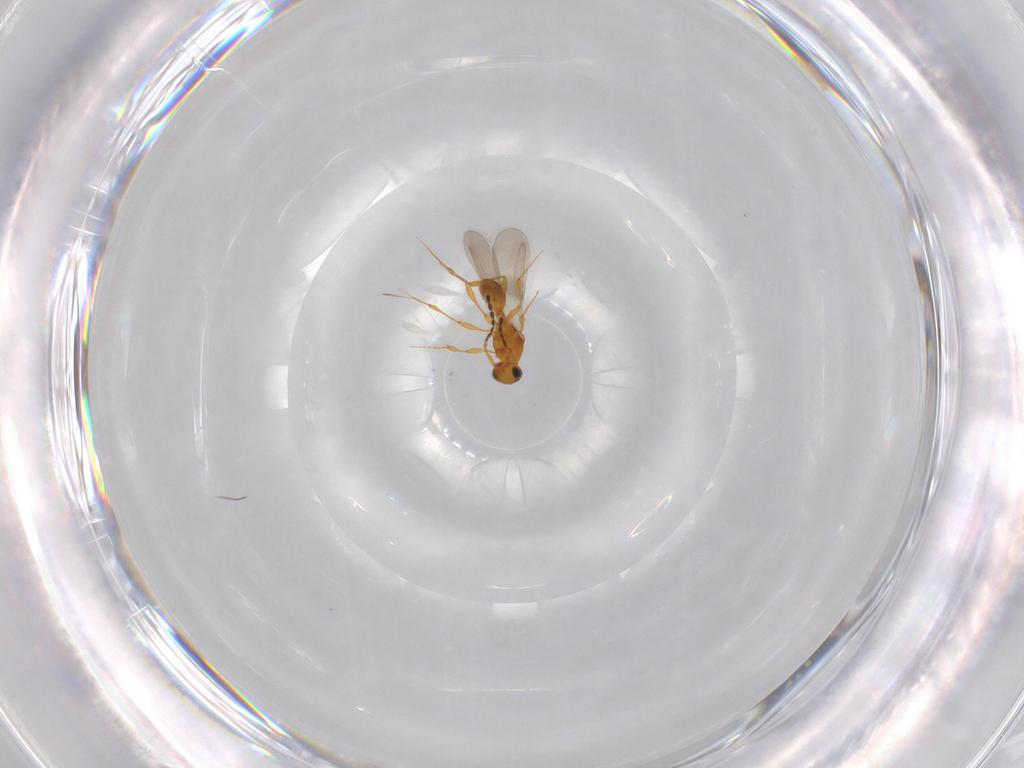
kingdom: Animalia
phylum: Arthropoda
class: Insecta
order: Hymenoptera
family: Platygastridae
